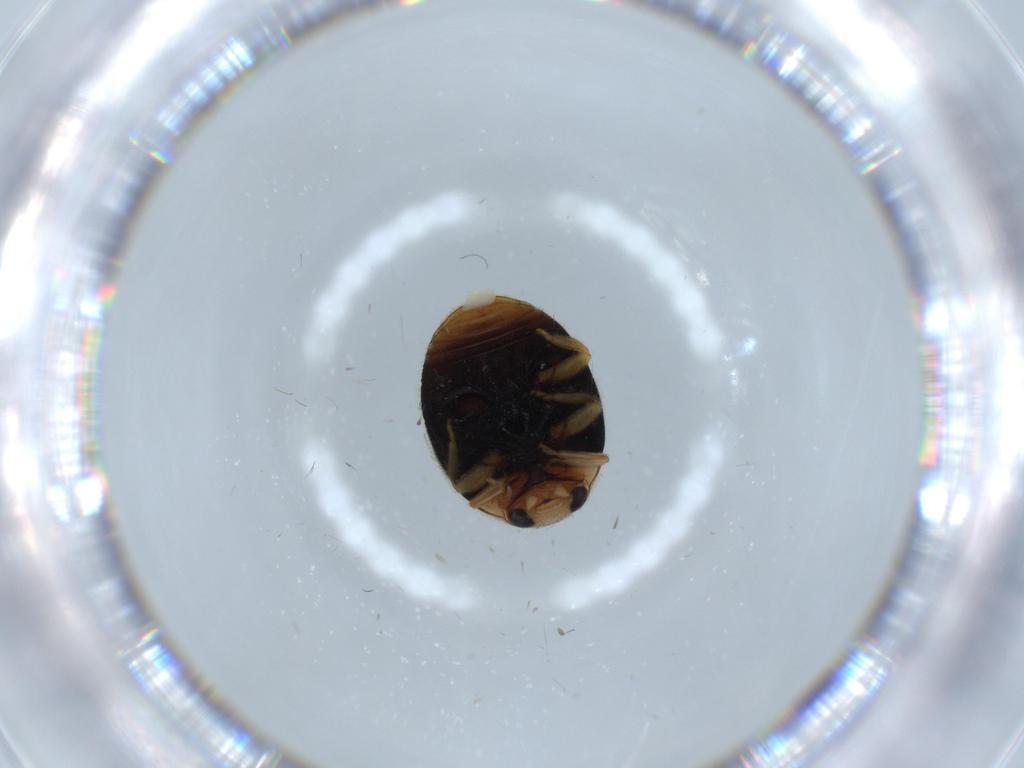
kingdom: Animalia
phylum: Arthropoda
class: Insecta
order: Coleoptera
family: Coccinellidae
